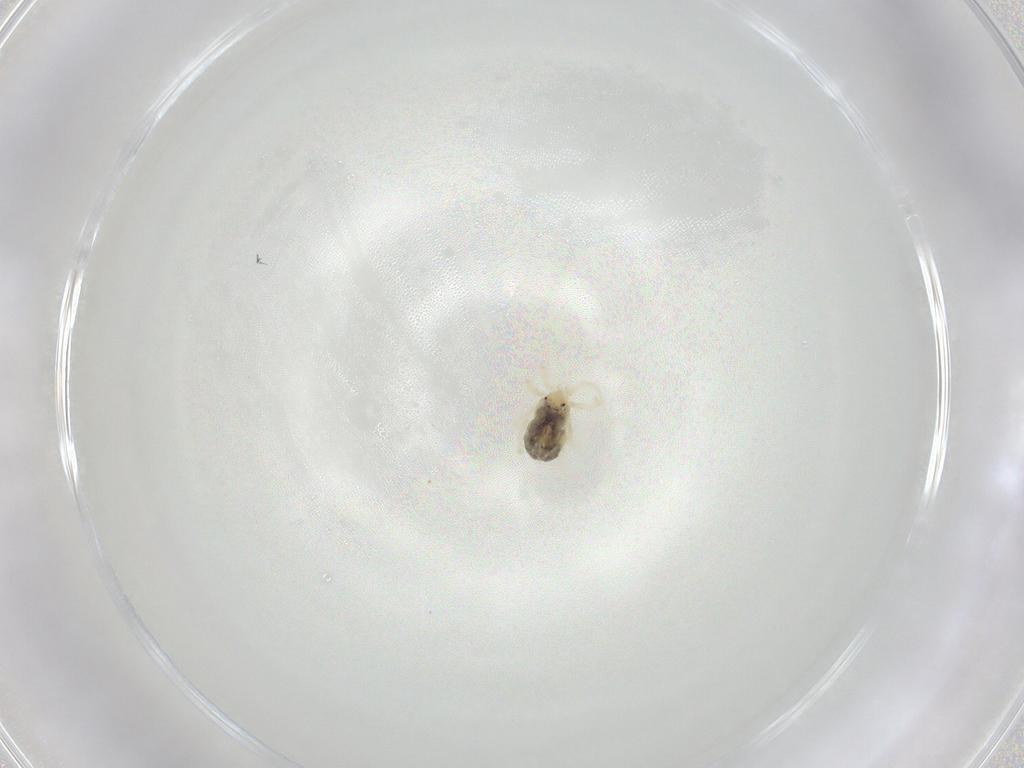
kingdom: Animalia
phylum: Arthropoda
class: Arachnida
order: Trombidiformes
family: Anystidae
